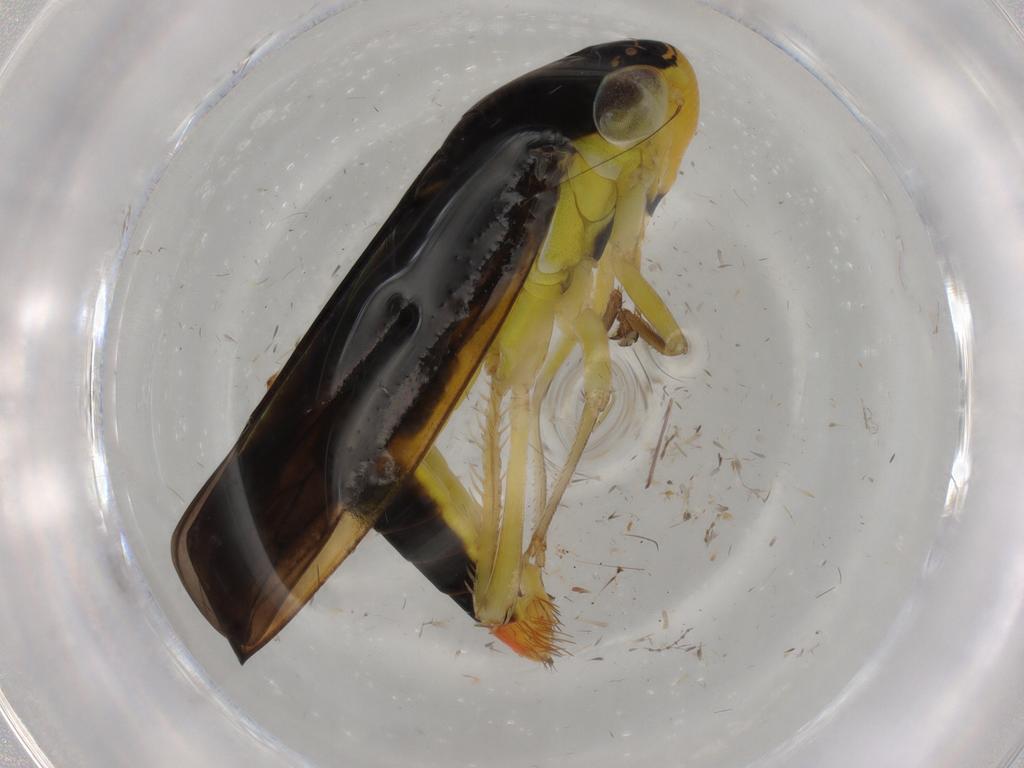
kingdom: Animalia
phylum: Arthropoda
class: Insecta
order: Hemiptera
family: Cicadellidae
